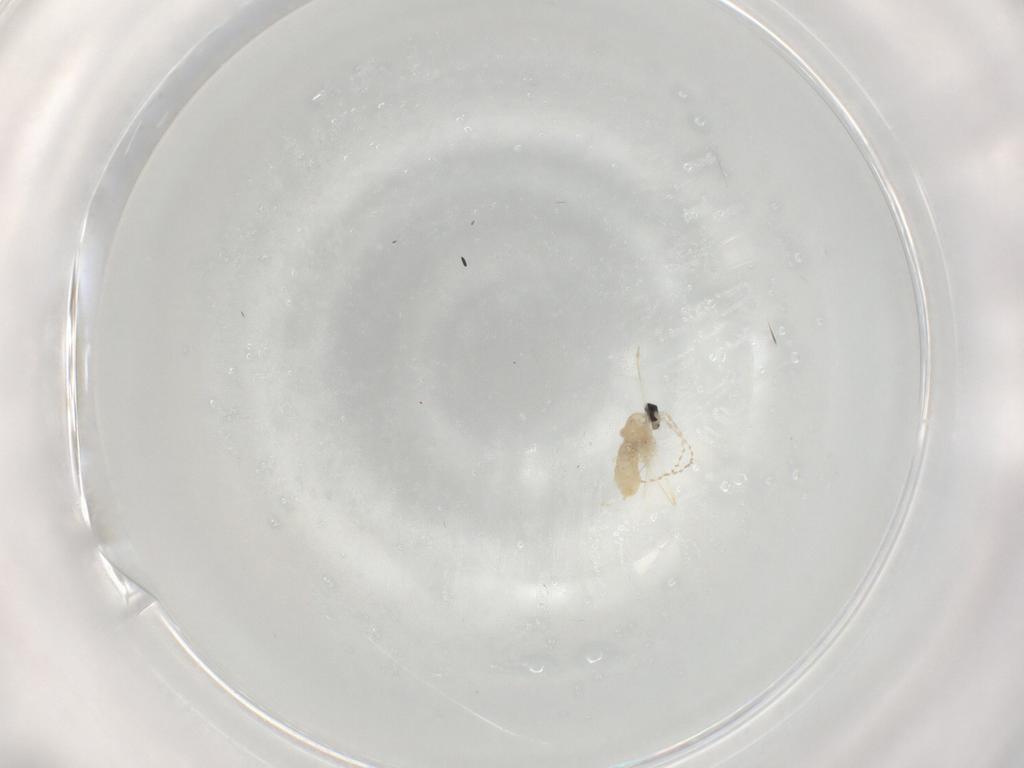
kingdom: Animalia
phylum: Arthropoda
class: Insecta
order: Diptera
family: Cecidomyiidae
